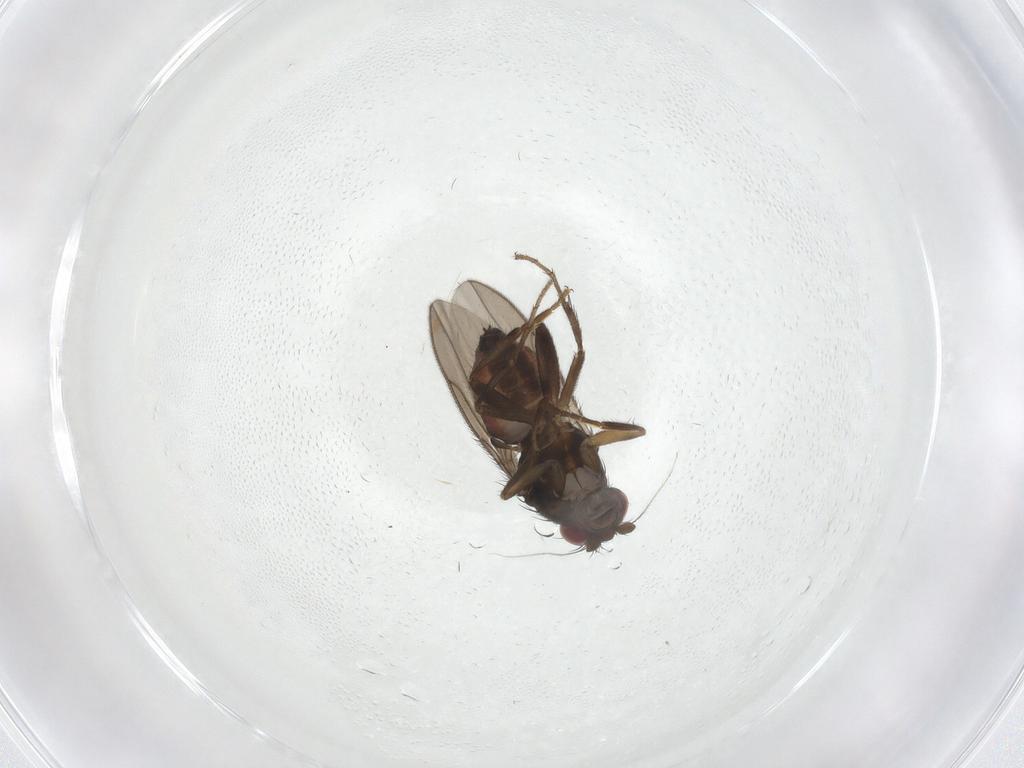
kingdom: Animalia
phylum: Arthropoda
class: Insecta
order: Diptera
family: Sphaeroceridae
